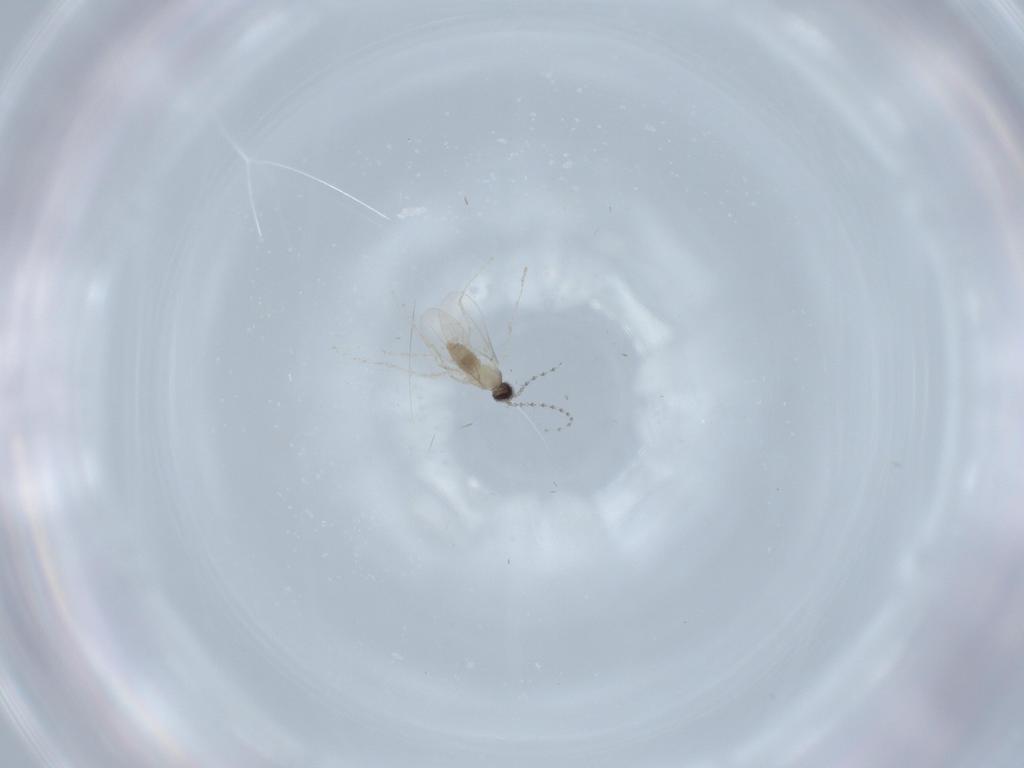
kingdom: Animalia
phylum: Arthropoda
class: Insecta
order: Diptera
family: Cecidomyiidae
